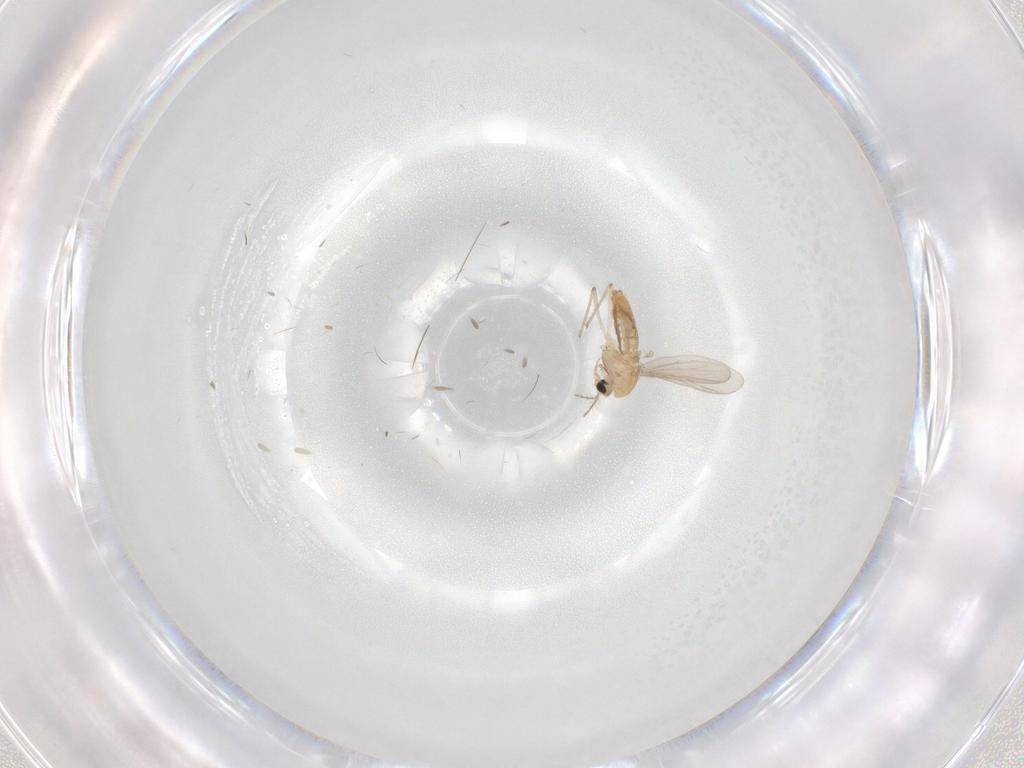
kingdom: Animalia
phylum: Arthropoda
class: Insecta
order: Diptera
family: Chironomidae
